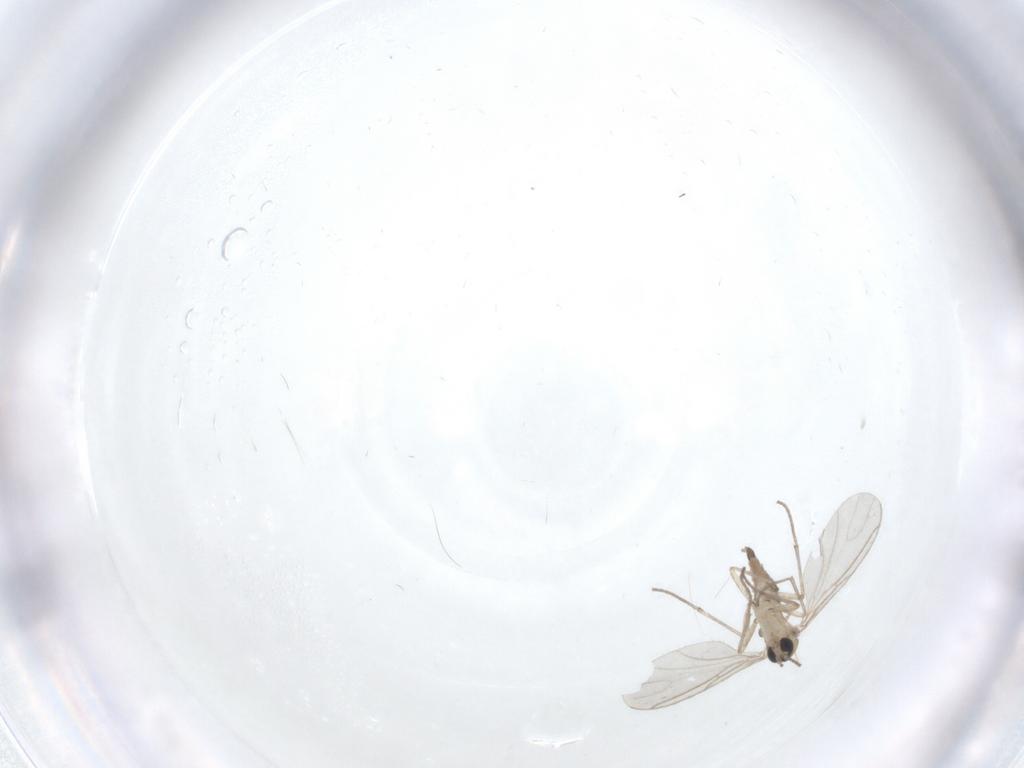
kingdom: Animalia
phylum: Arthropoda
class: Insecta
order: Diptera
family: Sciaridae
